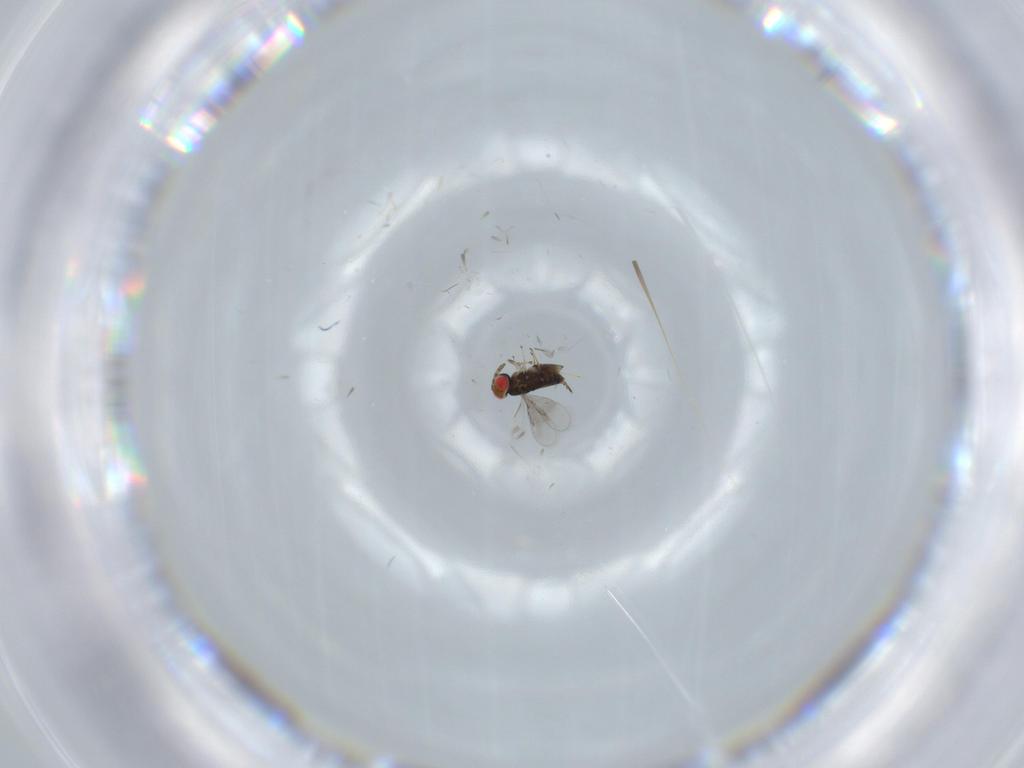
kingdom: Animalia
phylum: Arthropoda
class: Insecta
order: Hymenoptera
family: Azotidae
